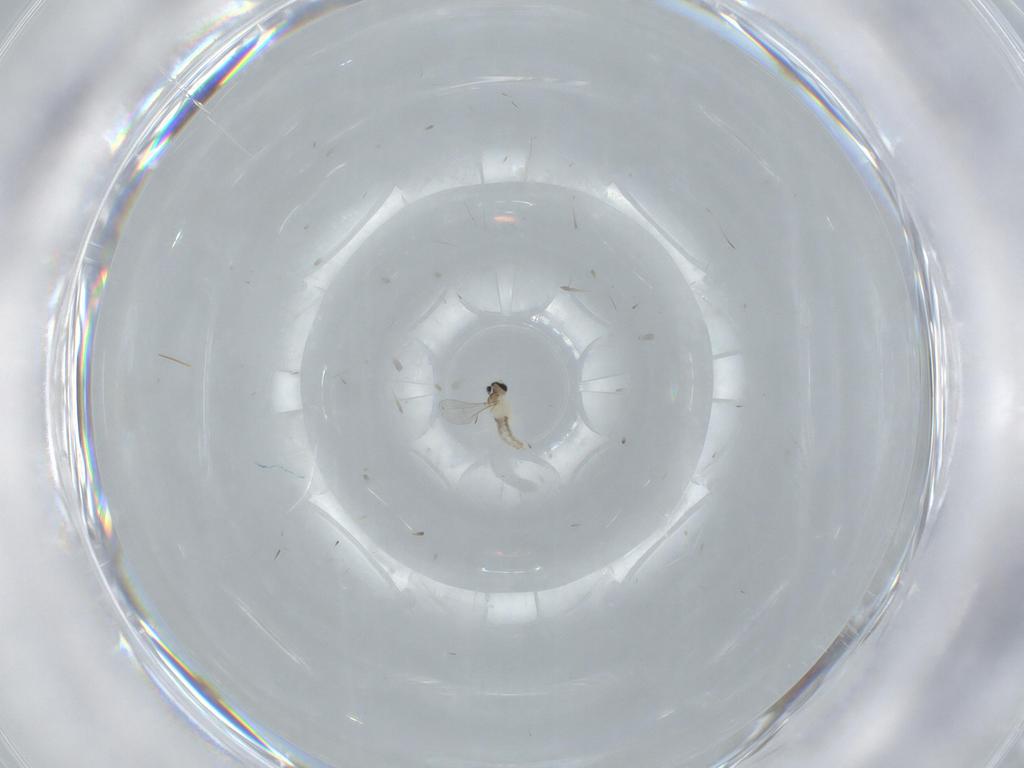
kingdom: Animalia
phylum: Arthropoda
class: Insecta
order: Diptera
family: Tabanidae
